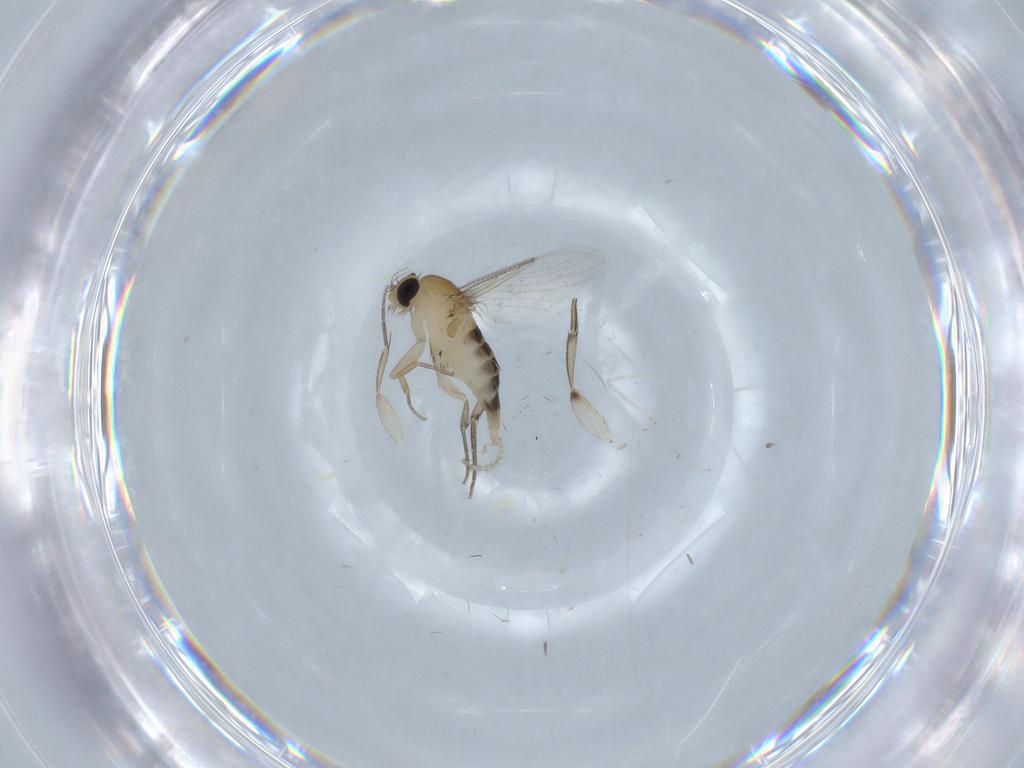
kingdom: Animalia
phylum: Arthropoda
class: Insecta
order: Diptera
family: Limoniidae
